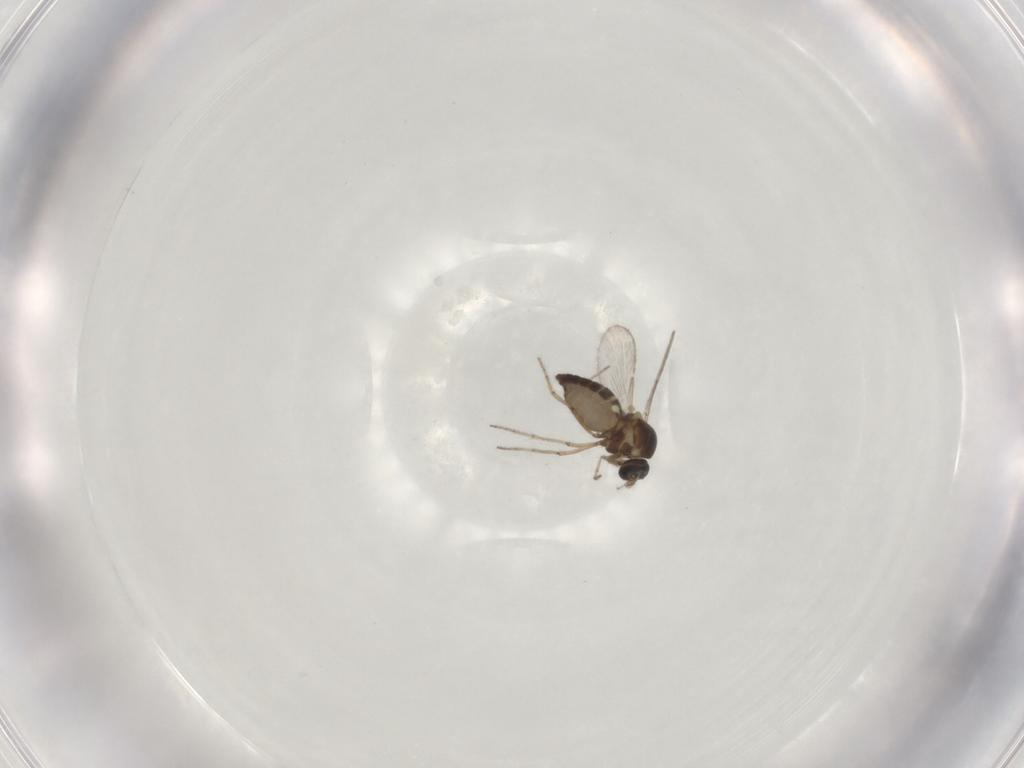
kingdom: Animalia
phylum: Arthropoda
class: Insecta
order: Diptera
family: Ceratopogonidae
